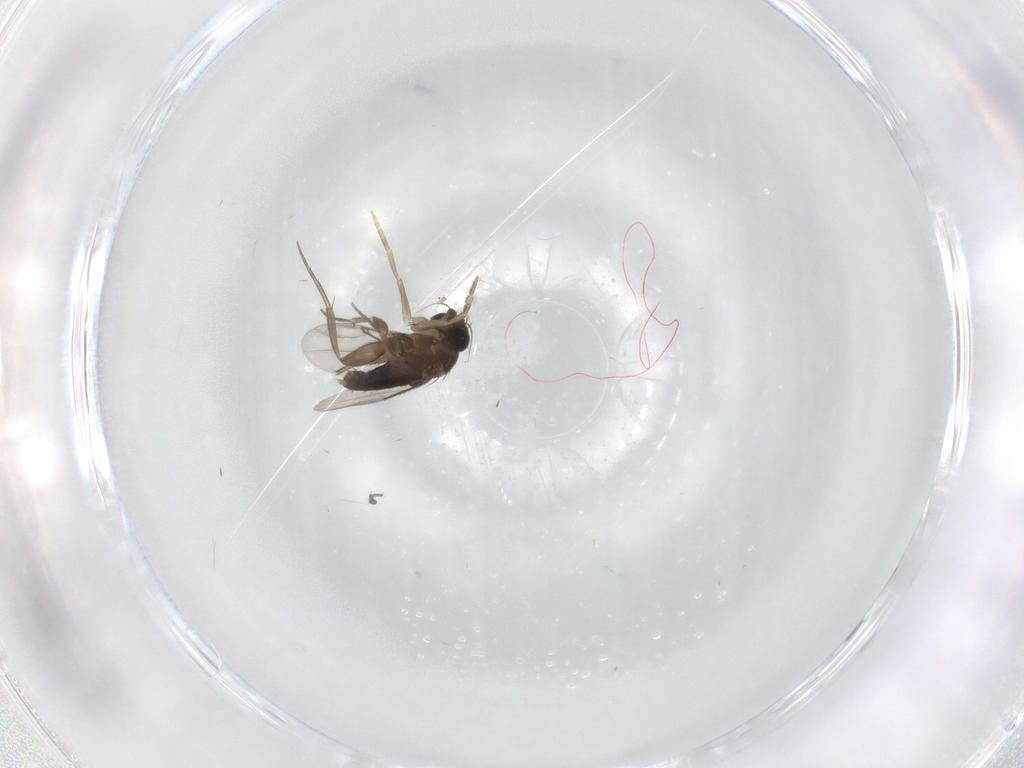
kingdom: Animalia
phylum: Arthropoda
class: Insecta
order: Diptera
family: Limoniidae
